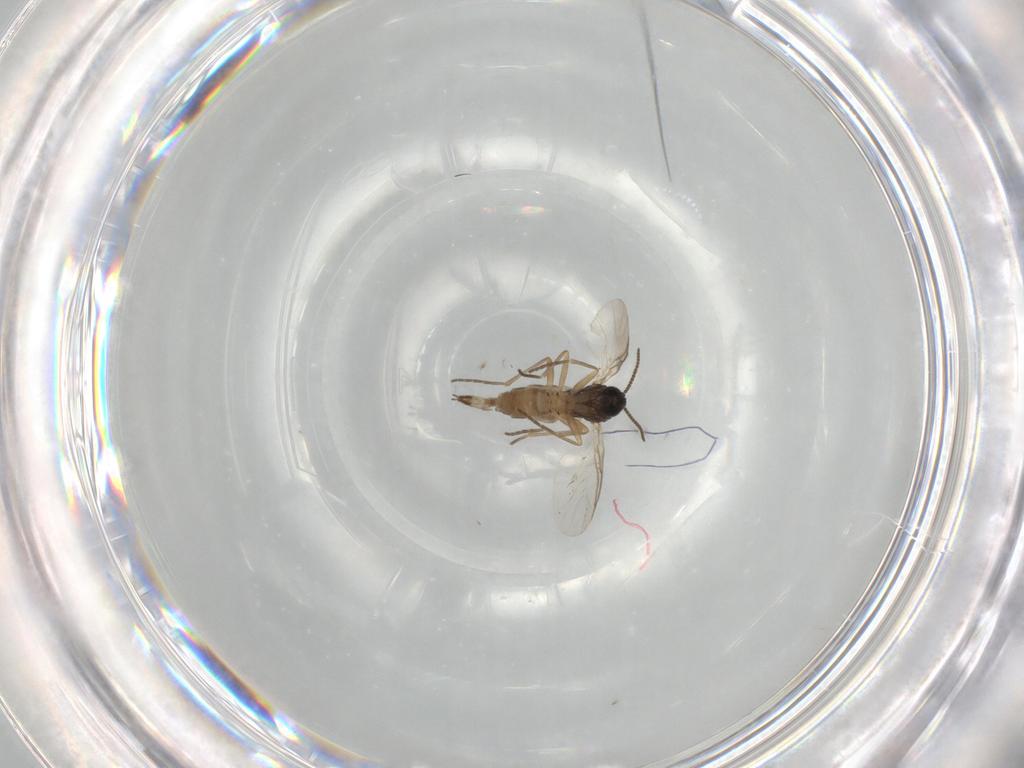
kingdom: Animalia
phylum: Arthropoda
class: Insecta
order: Diptera
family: Sciaridae
